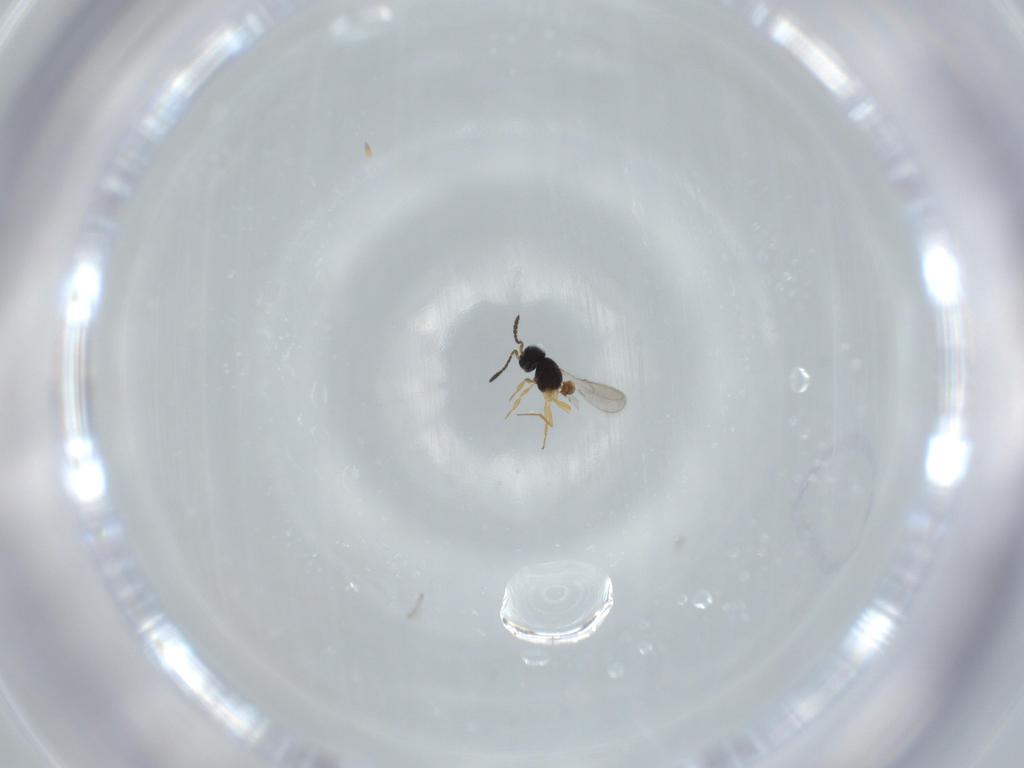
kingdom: Animalia
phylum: Arthropoda
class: Insecta
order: Hymenoptera
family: Scelionidae
